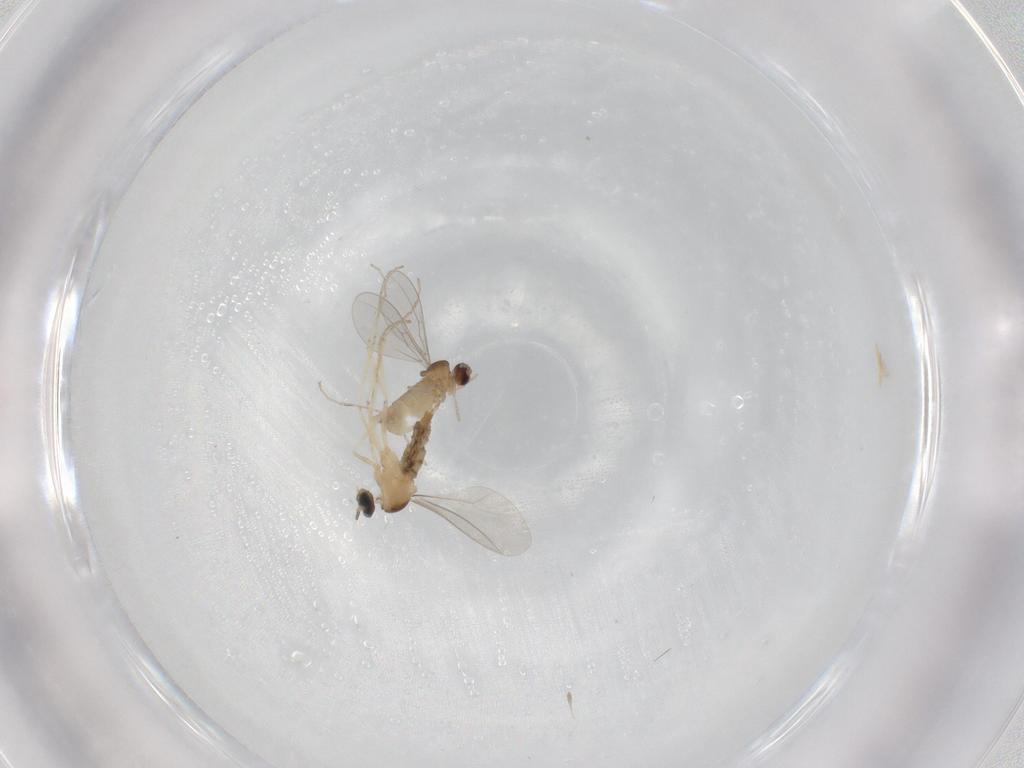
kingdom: Animalia
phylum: Arthropoda
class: Insecta
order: Diptera
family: Cecidomyiidae
